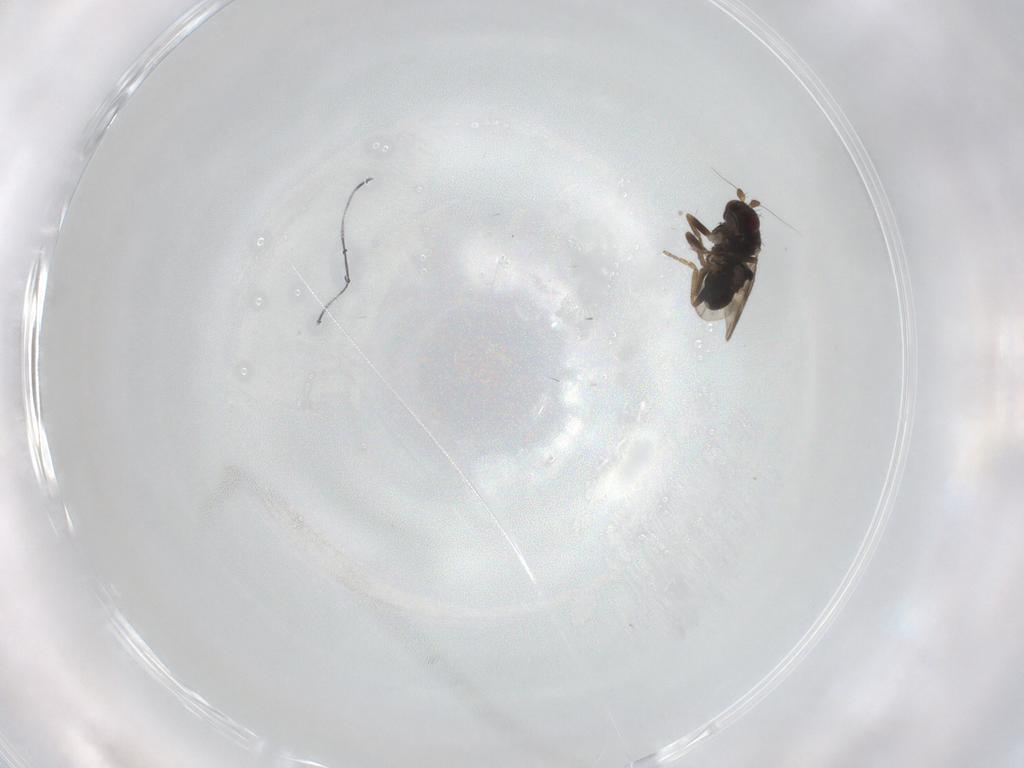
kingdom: Animalia
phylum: Arthropoda
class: Insecta
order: Diptera
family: Sphaeroceridae
